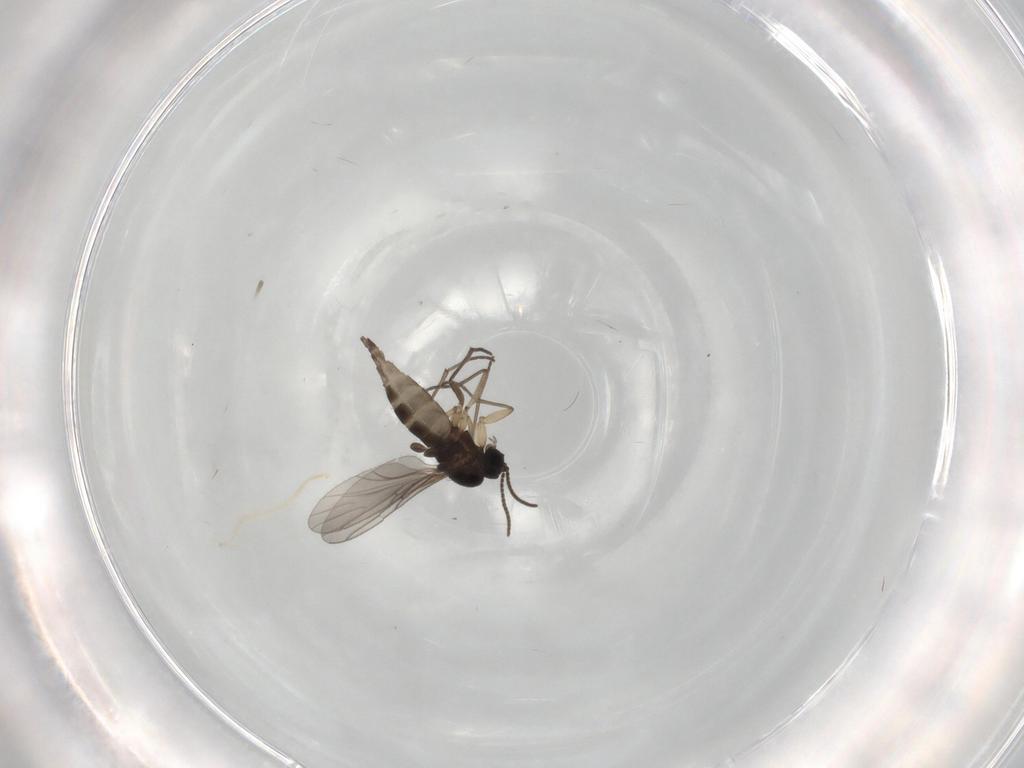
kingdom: Animalia
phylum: Arthropoda
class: Insecta
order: Diptera
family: Sciaridae
